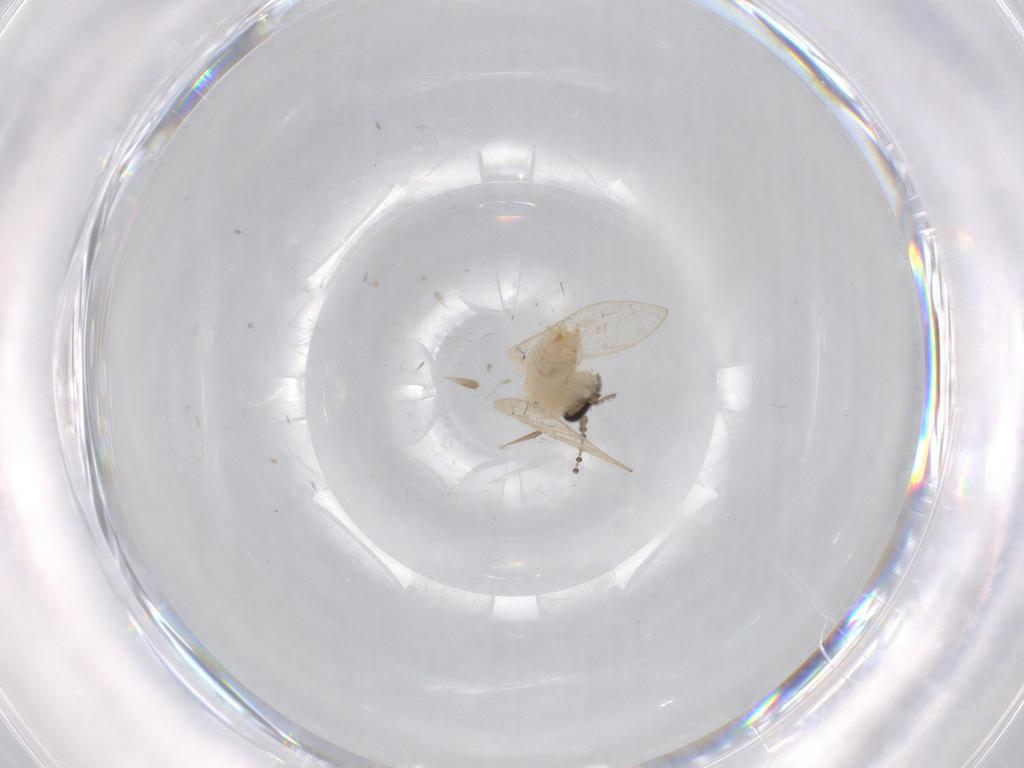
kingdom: Animalia
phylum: Arthropoda
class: Insecta
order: Diptera
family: Psychodidae
